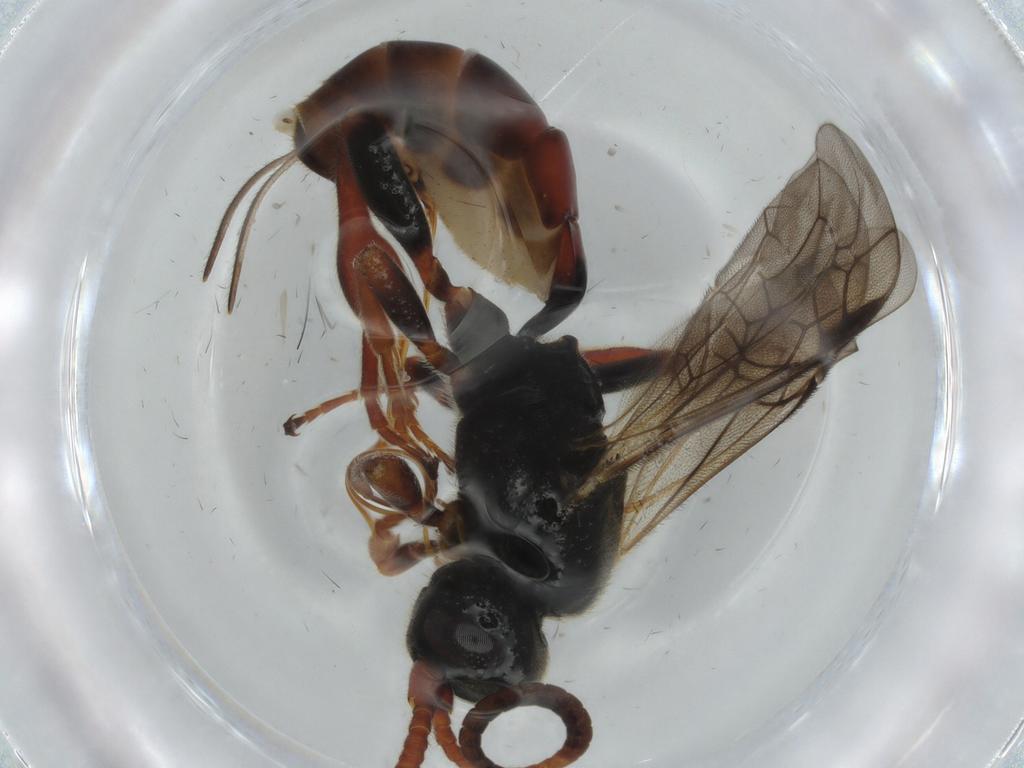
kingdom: Animalia
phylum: Arthropoda
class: Insecta
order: Hymenoptera
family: Ichneumonidae
